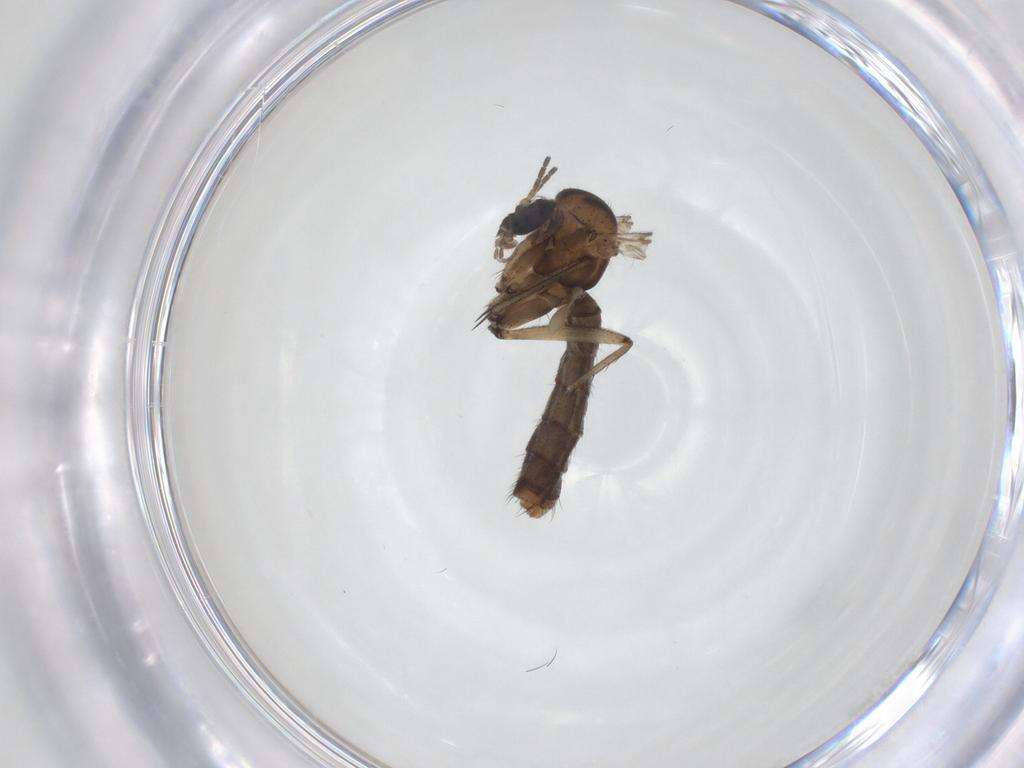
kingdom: Animalia
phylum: Arthropoda
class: Insecta
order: Diptera
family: Mycetophilidae
